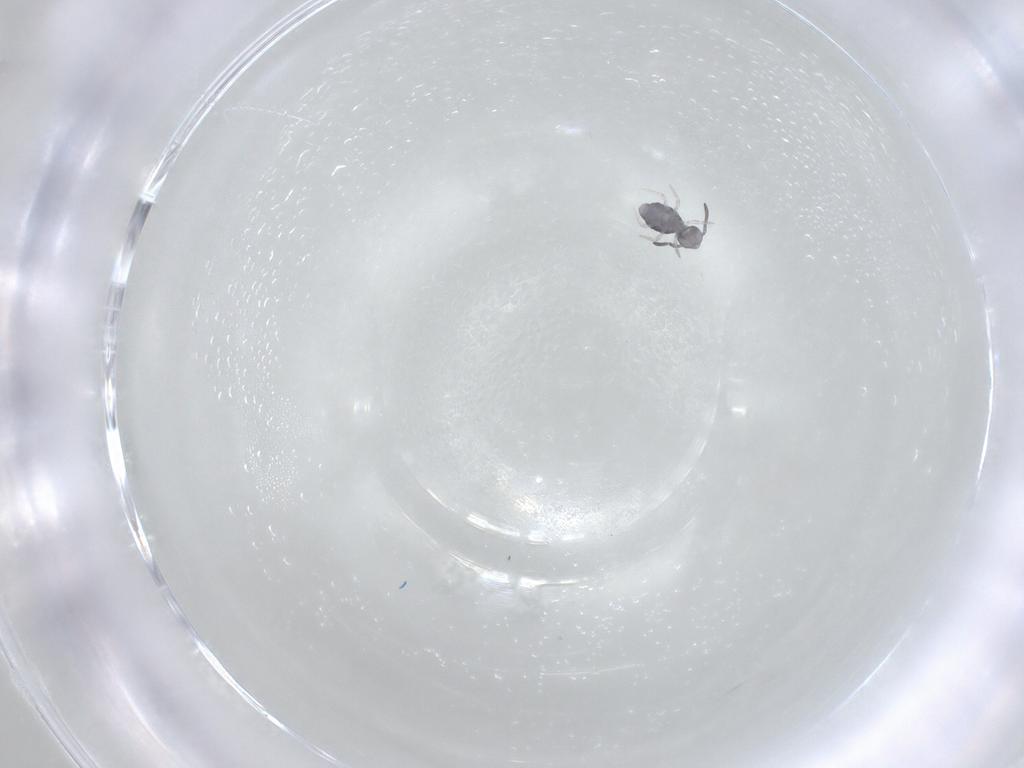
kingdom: Animalia
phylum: Arthropoda
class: Collembola
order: Symphypleona
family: Katiannidae
